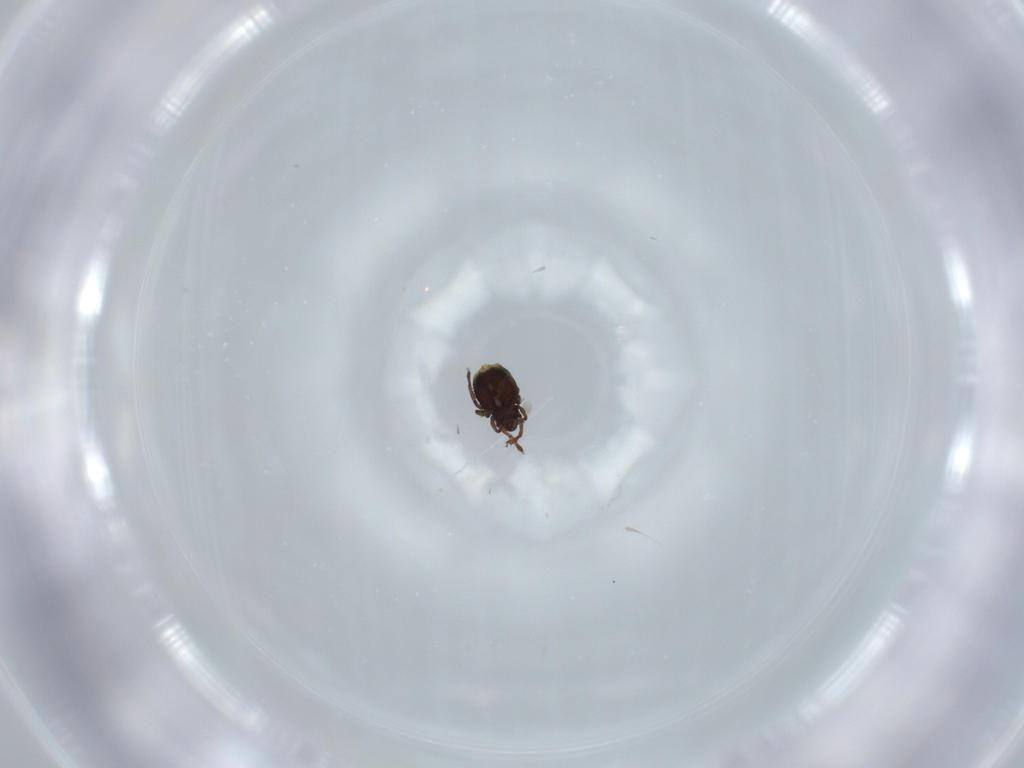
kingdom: Animalia
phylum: Arthropoda
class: Arachnida
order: Sarcoptiformes
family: Lyrifissellidae
